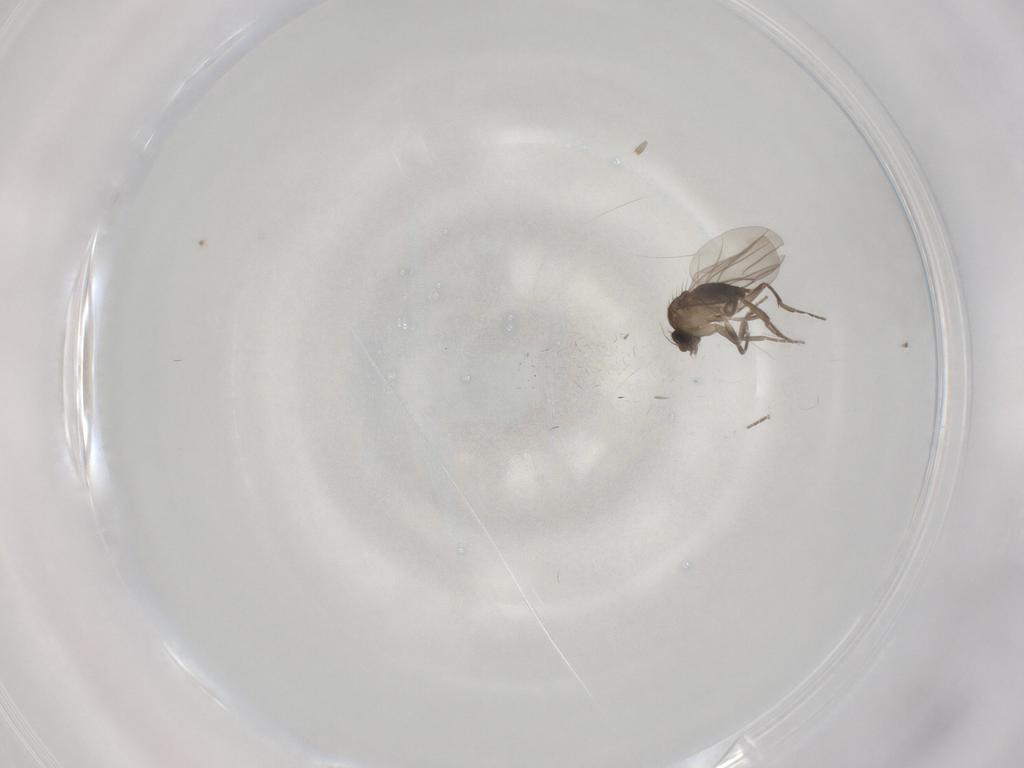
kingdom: Animalia
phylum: Arthropoda
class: Insecta
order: Diptera
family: Phoridae
